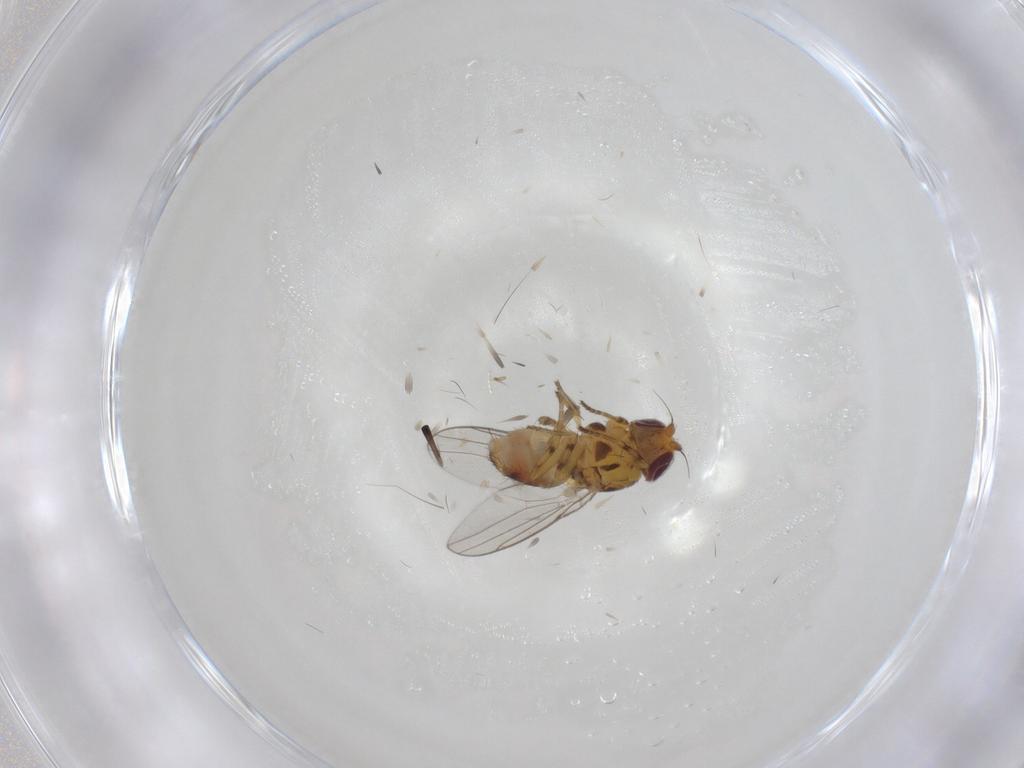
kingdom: Animalia
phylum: Arthropoda
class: Insecta
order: Diptera
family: Chloropidae
